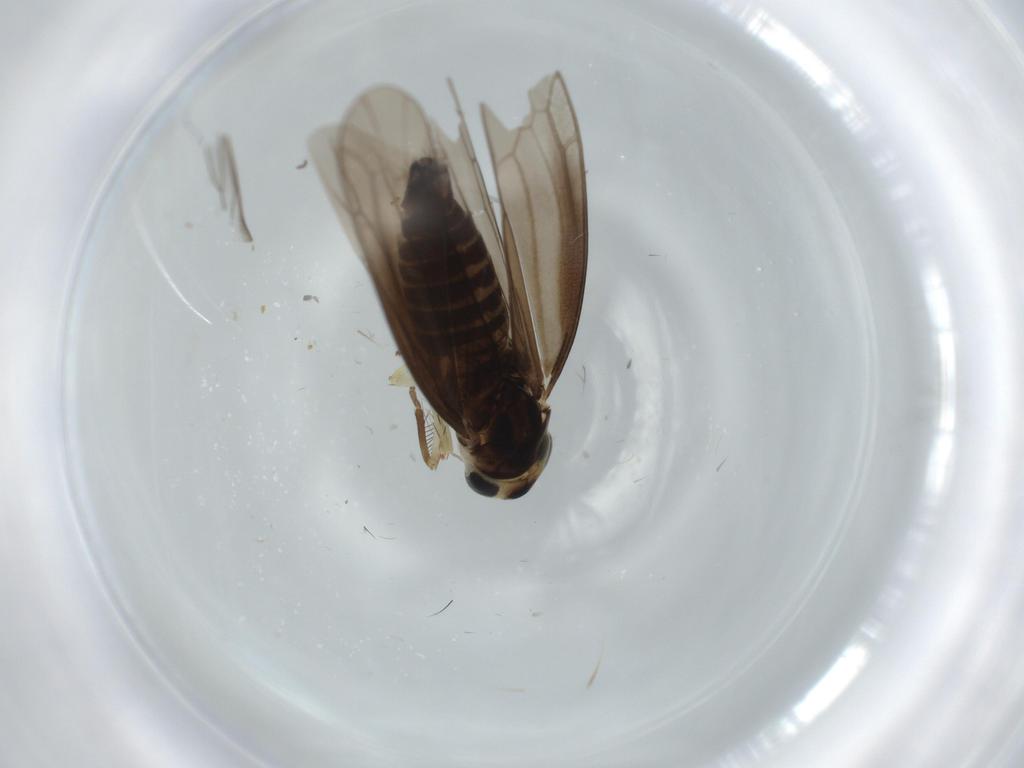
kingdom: Animalia
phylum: Arthropoda
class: Insecta
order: Hemiptera
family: Cicadellidae
